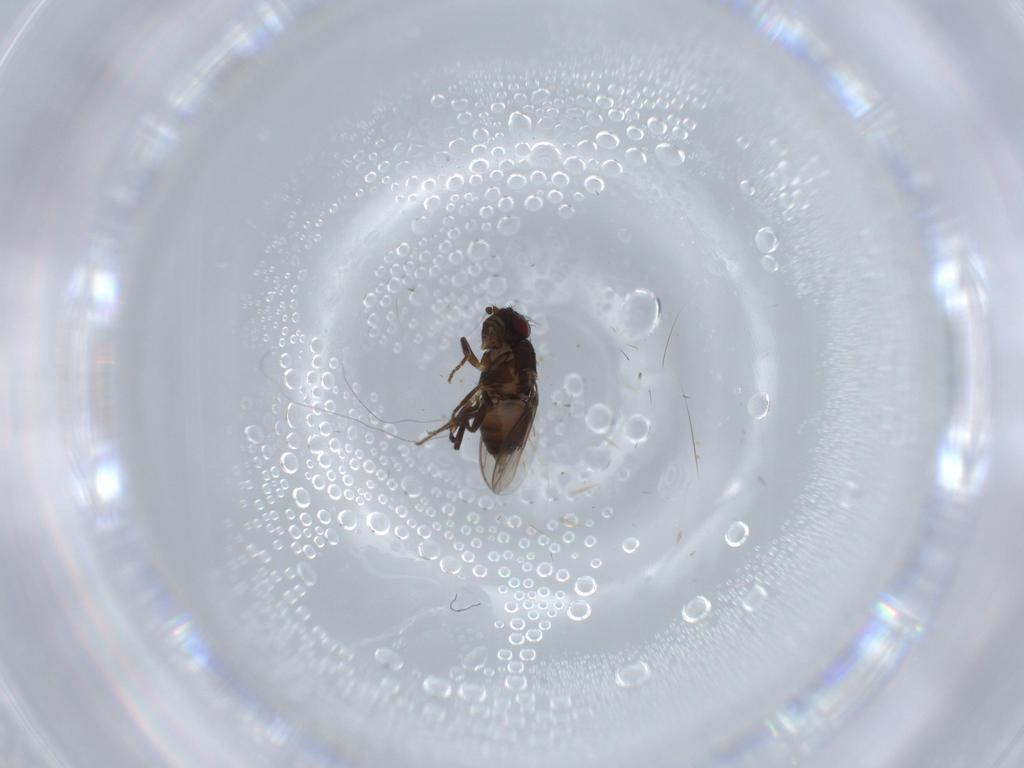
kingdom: Animalia
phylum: Arthropoda
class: Insecta
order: Diptera
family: Sphaeroceridae
